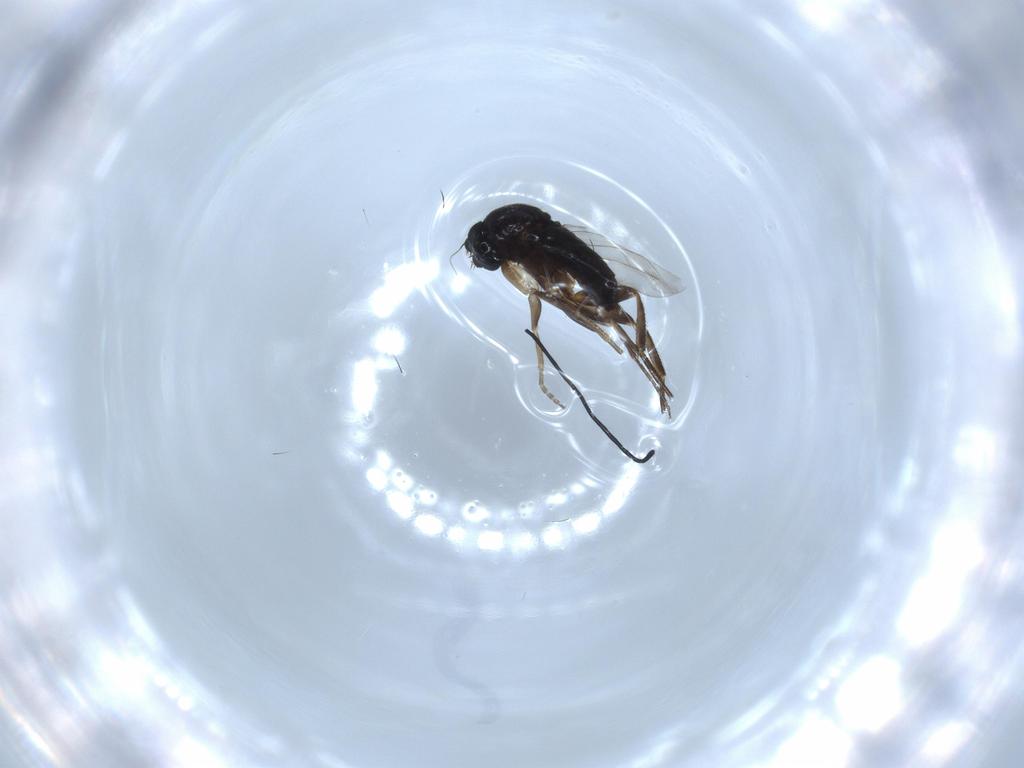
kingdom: Animalia
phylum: Arthropoda
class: Insecta
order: Diptera
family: Phoridae
